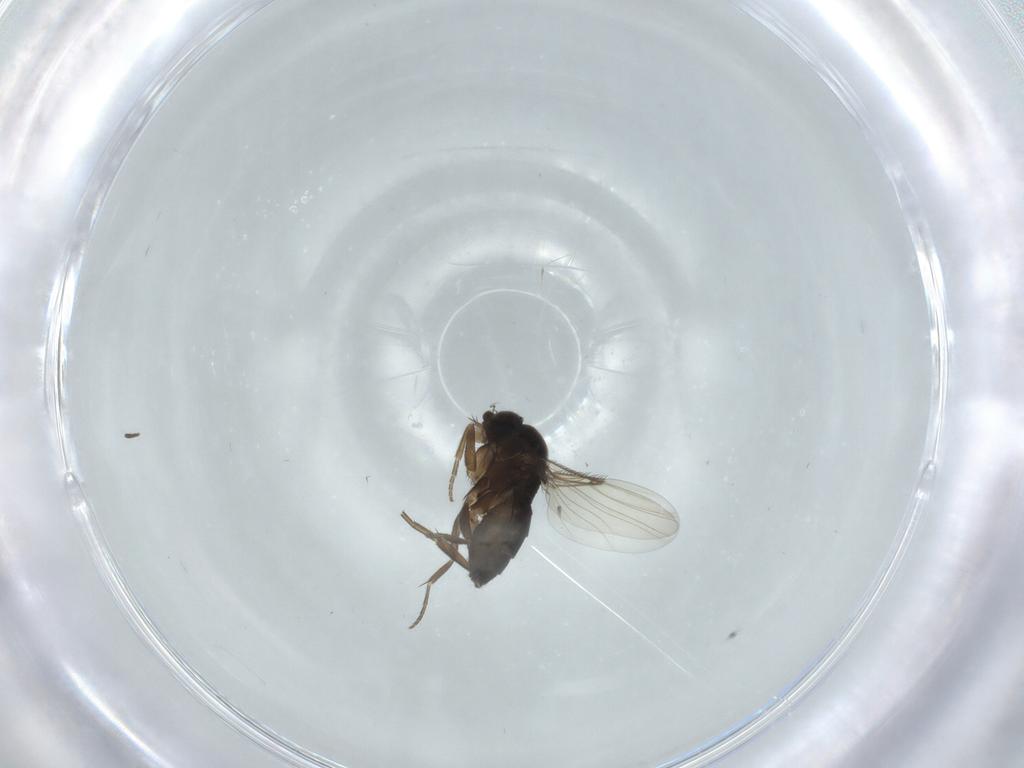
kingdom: Animalia
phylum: Arthropoda
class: Insecta
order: Diptera
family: Phoridae
